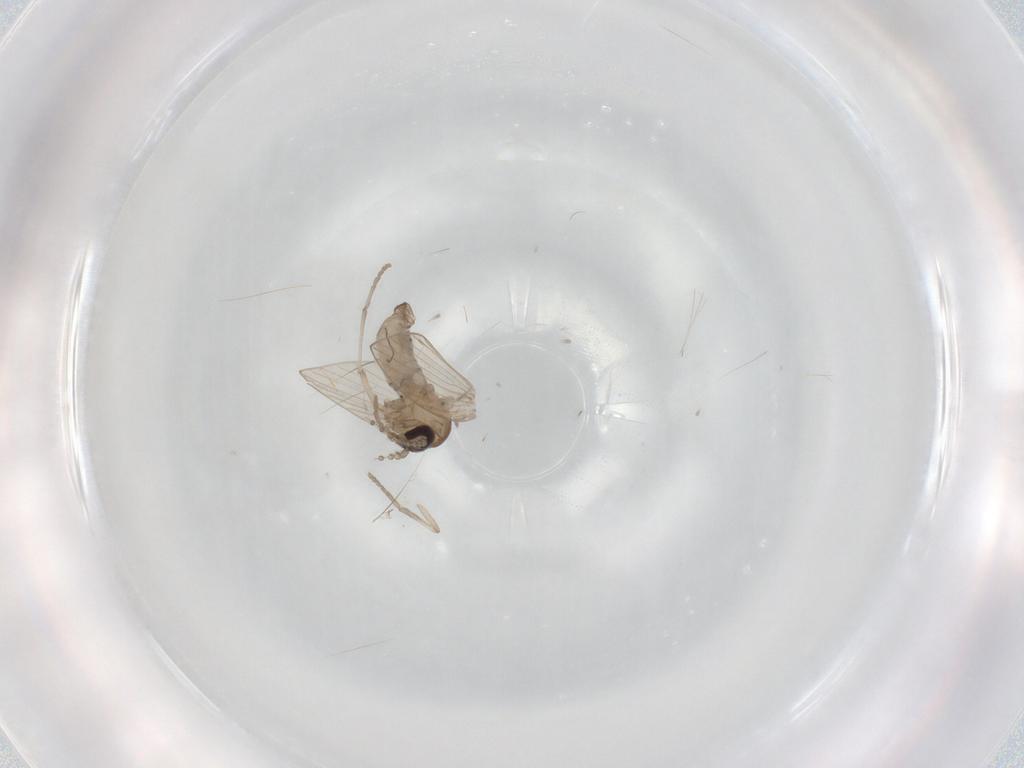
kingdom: Animalia
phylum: Arthropoda
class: Insecta
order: Diptera
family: Psychodidae
